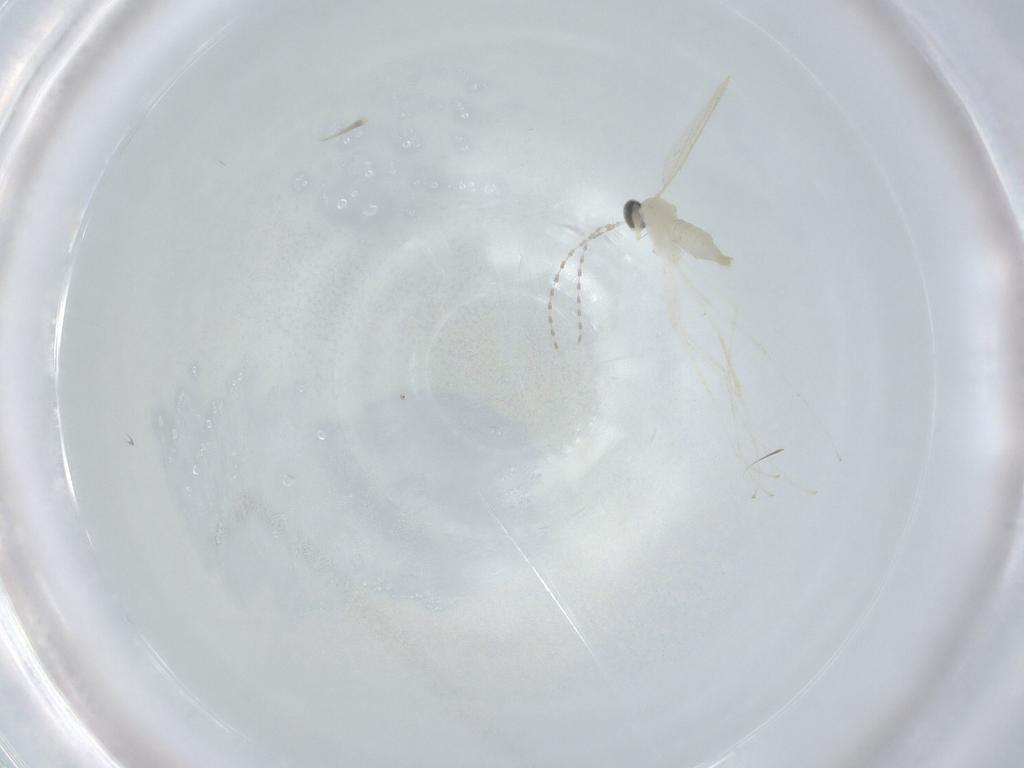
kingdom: Animalia
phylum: Arthropoda
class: Insecta
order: Diptera
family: Cecidomyiidae
